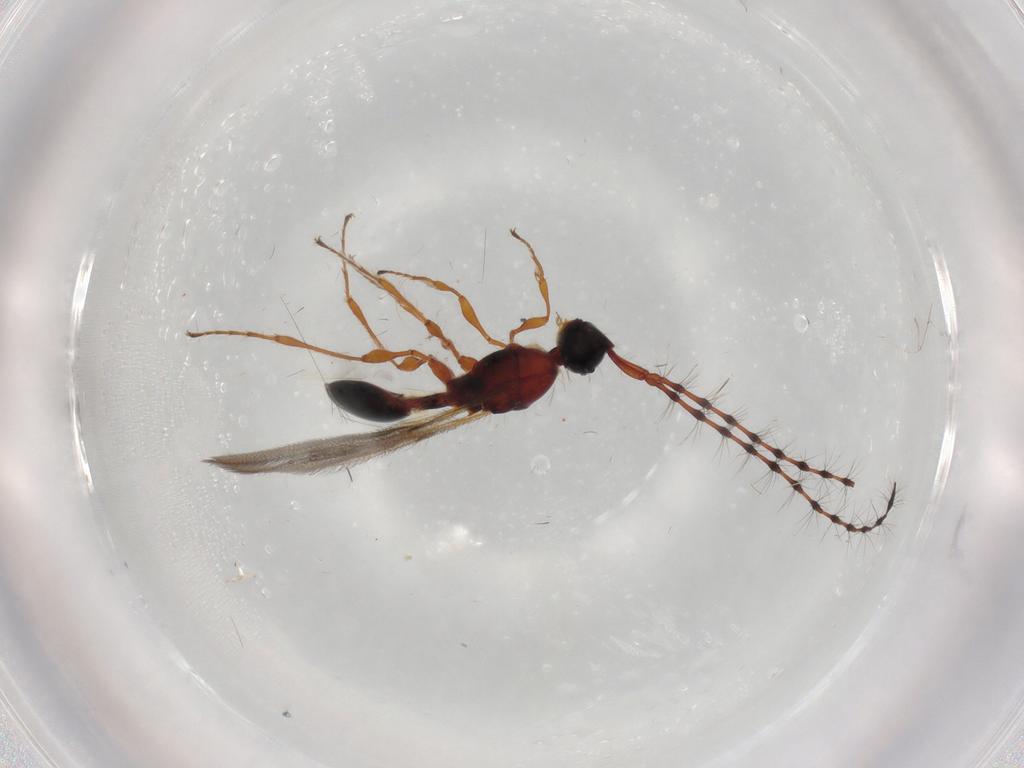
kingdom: Animalia
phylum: Arthropoda
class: Insecta
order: Hymenoptera
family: Diapriidae
